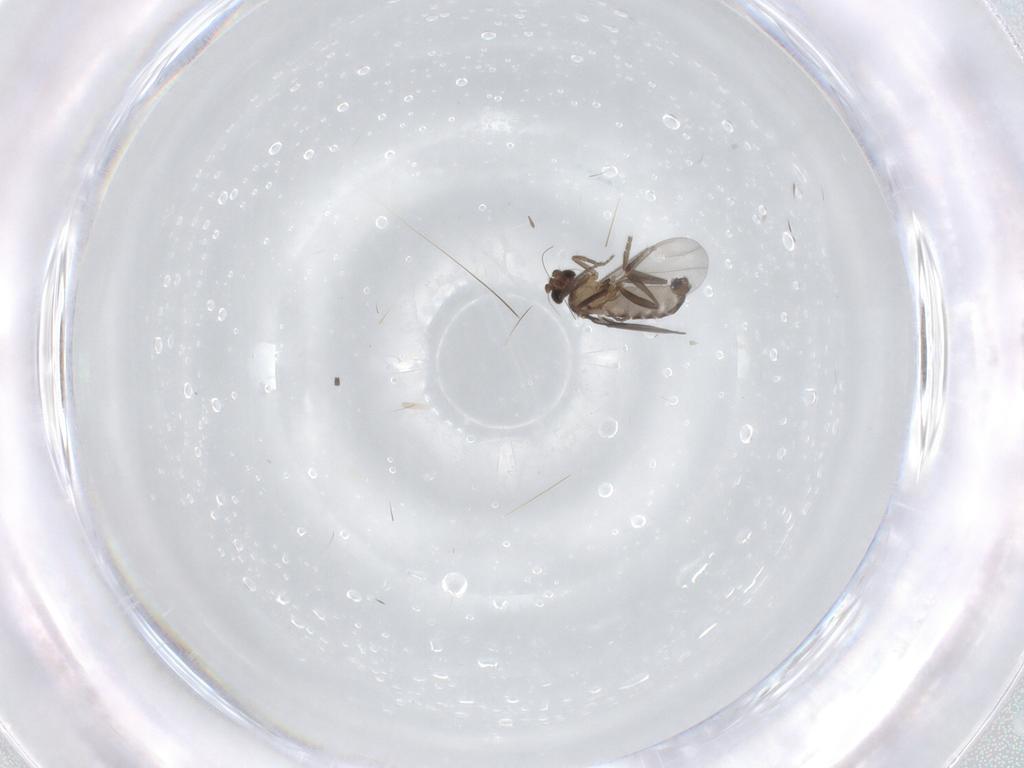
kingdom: Animalia
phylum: Arthropoda
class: Insecta
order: Diptera
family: Phoridae
